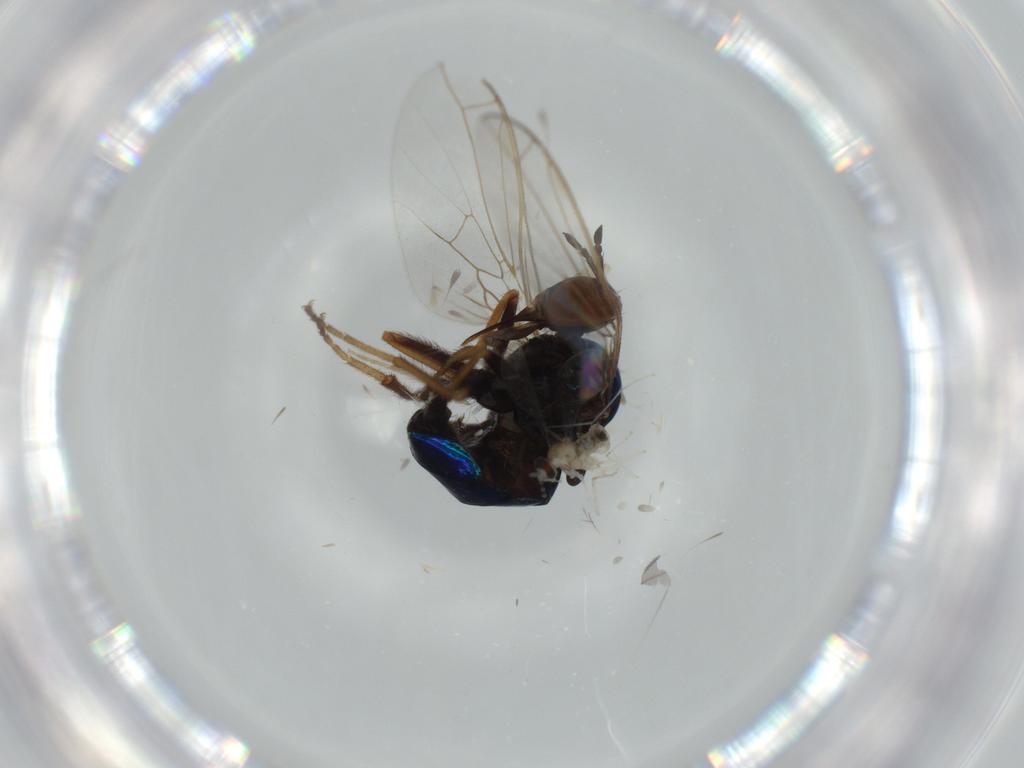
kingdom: Animalia
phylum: Arthropoda
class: Insecta
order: Diptera
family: Empididae
